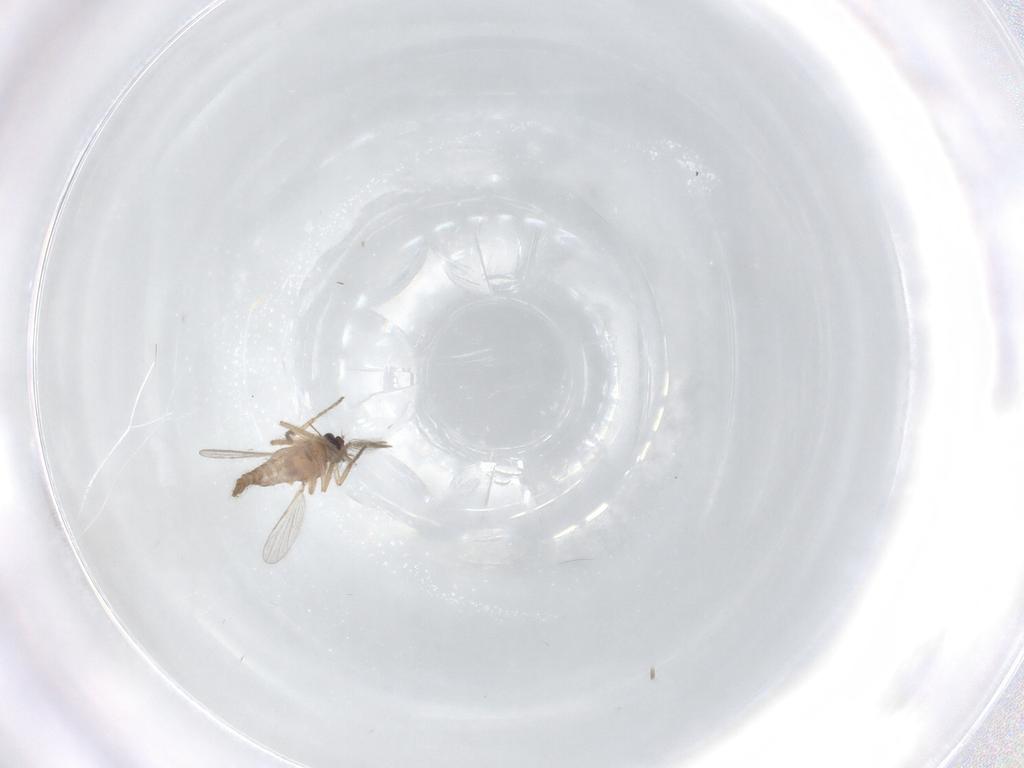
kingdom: Animalia
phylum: Arthropoda
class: Insecta
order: Diptera
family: Chironomidae
